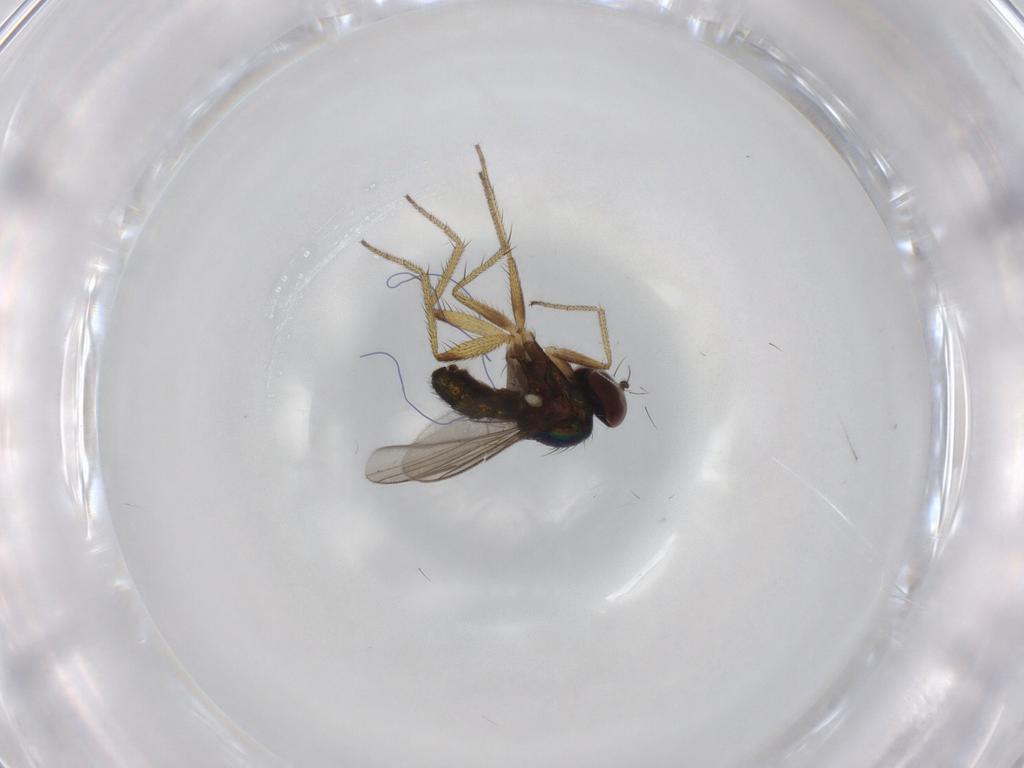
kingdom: Animalia
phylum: Arthropoda
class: Insecta
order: Diptera
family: Dolichopodidae
